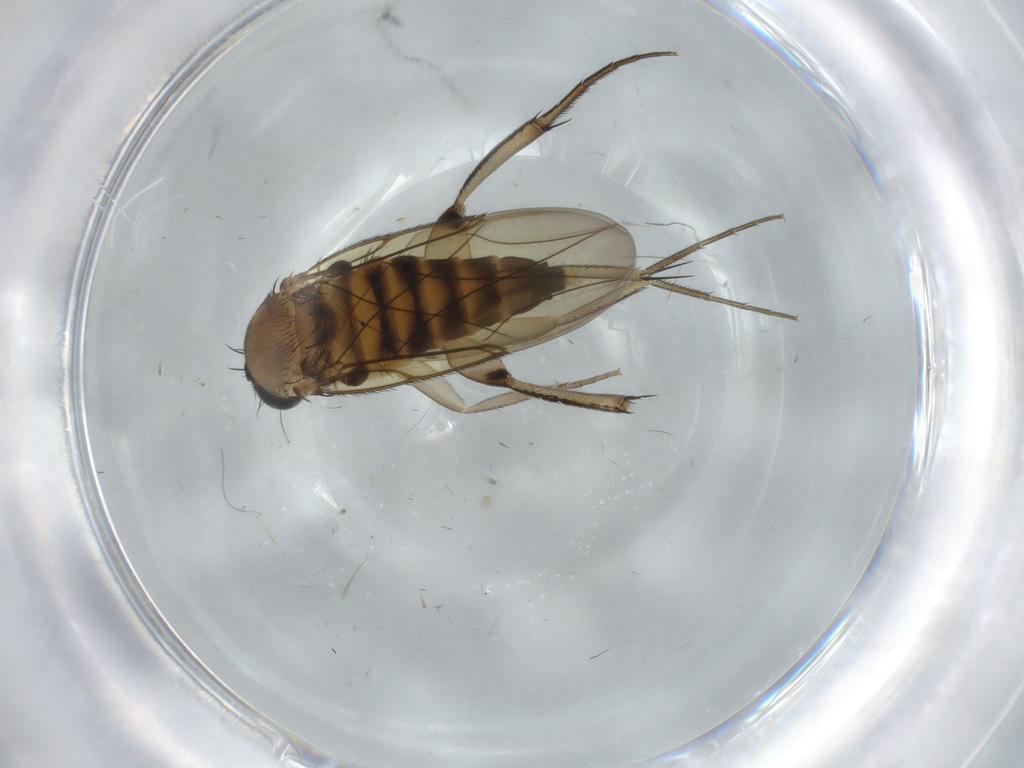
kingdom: Animalia
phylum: Arthropoda
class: Insecta
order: Diptera
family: Phoridae
